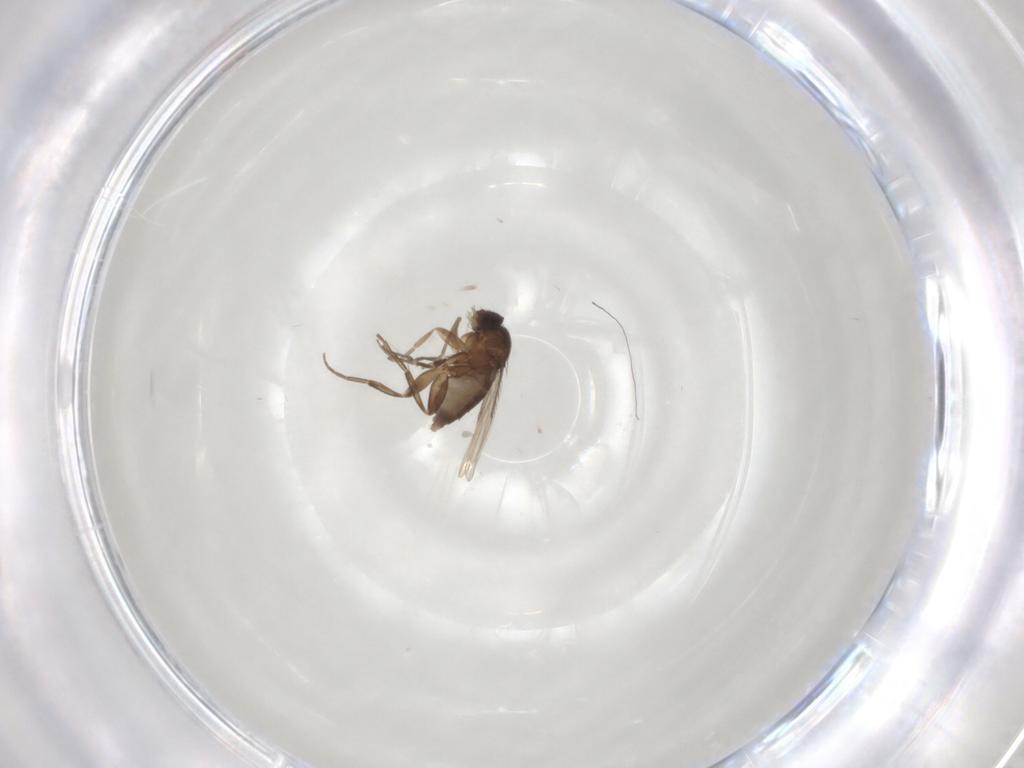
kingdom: Animalia
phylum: Arthropoda
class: Insecta
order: Diptera
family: Phoridae
